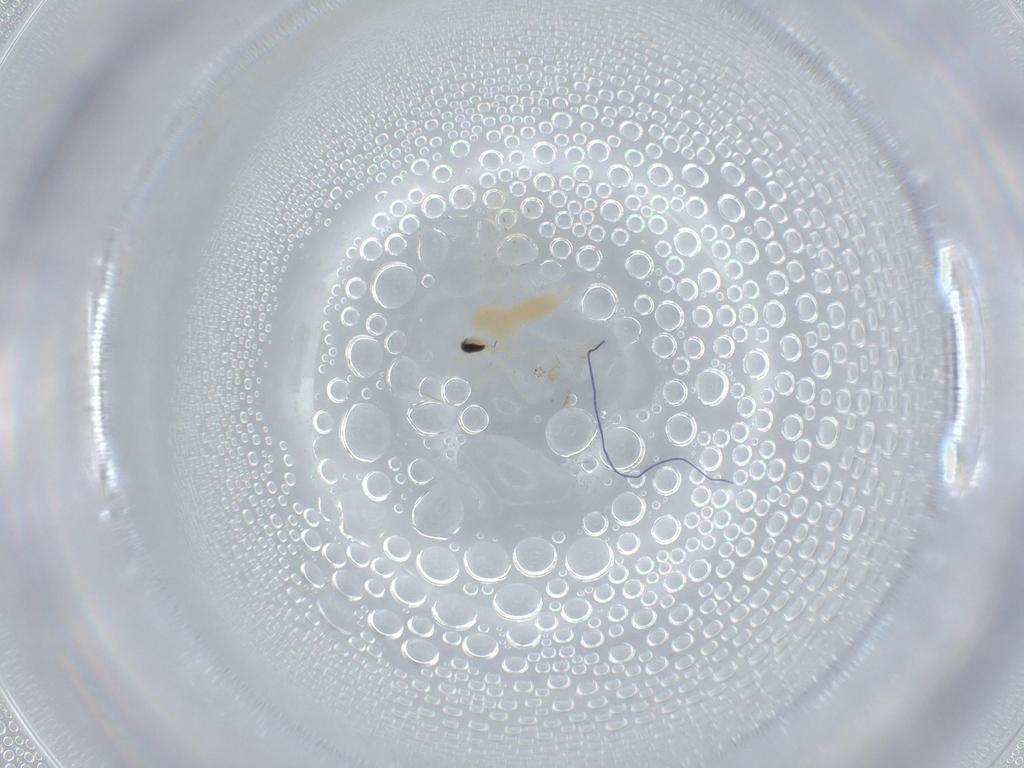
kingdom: Animalia
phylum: Arthropoda
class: Insecta
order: Diptera
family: Cecidomyiidae
